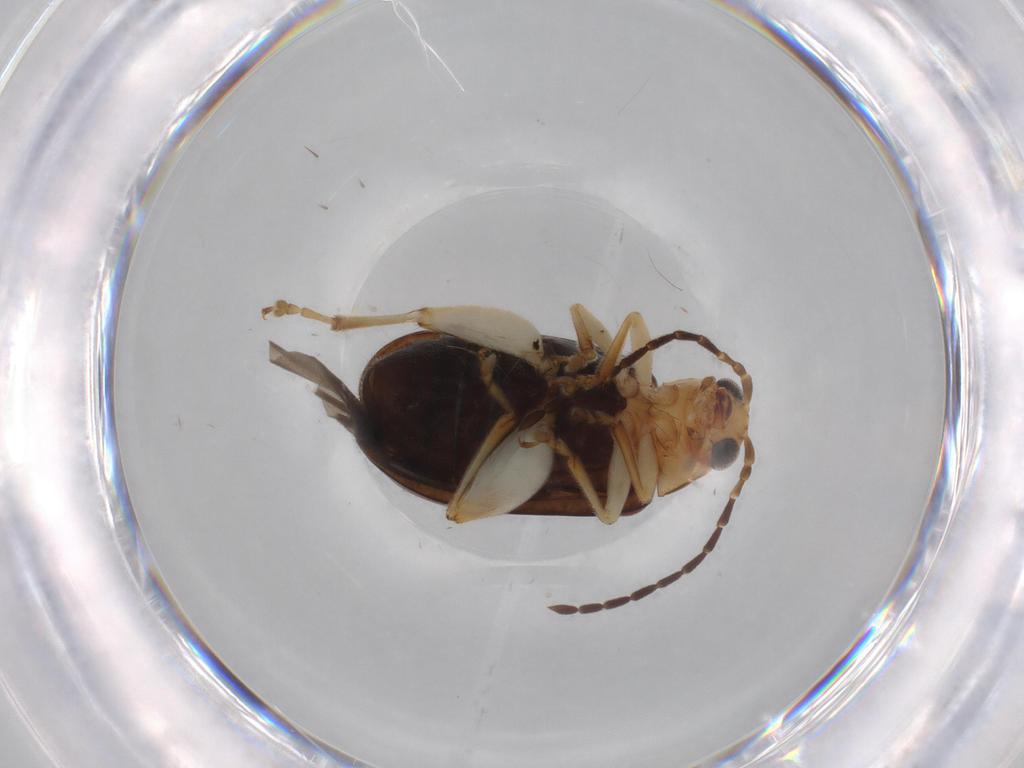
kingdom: Animalia
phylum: Arthropoda
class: Insecta
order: Coleoptera
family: Chrysomelidae
